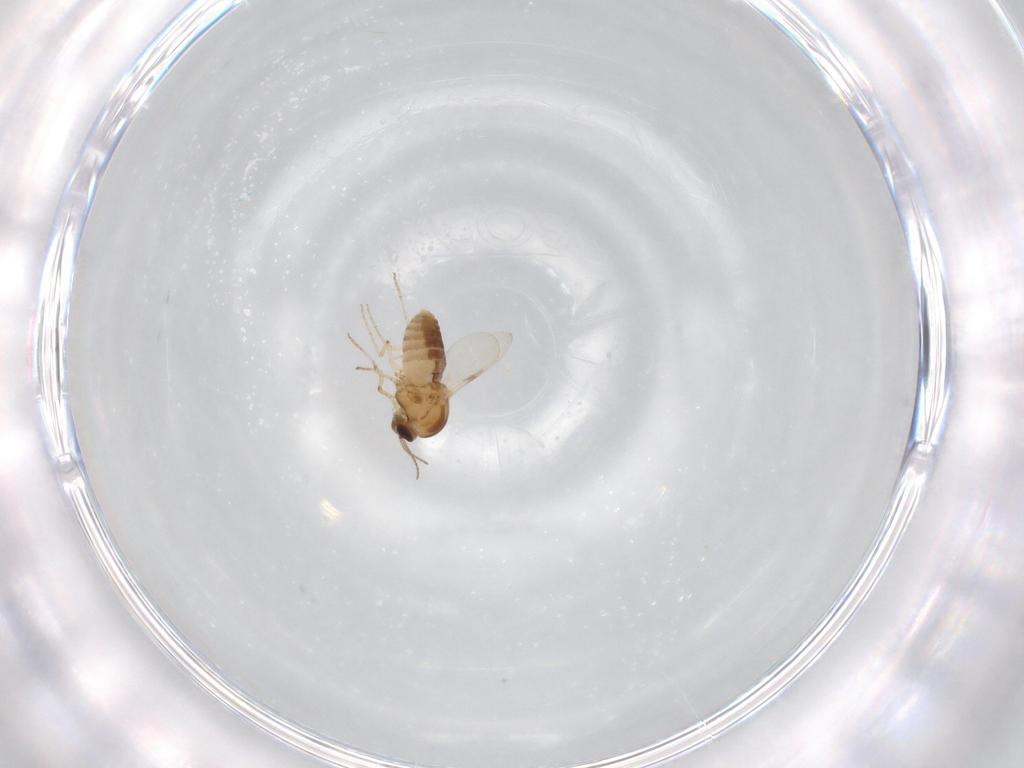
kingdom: Animalia
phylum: Arthropoda
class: Insecta
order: Diptera
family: Ceratopogonidae
